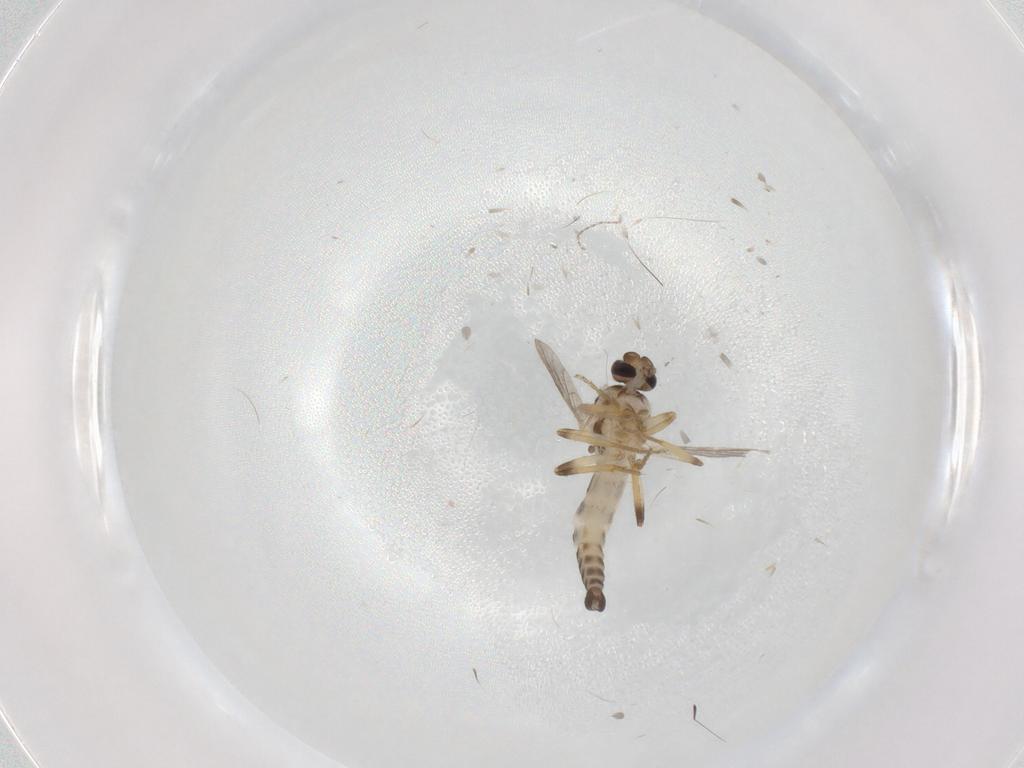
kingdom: Animalia
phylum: Arthropoda
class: Insecta
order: Diptera
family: Ceratopogonidae
